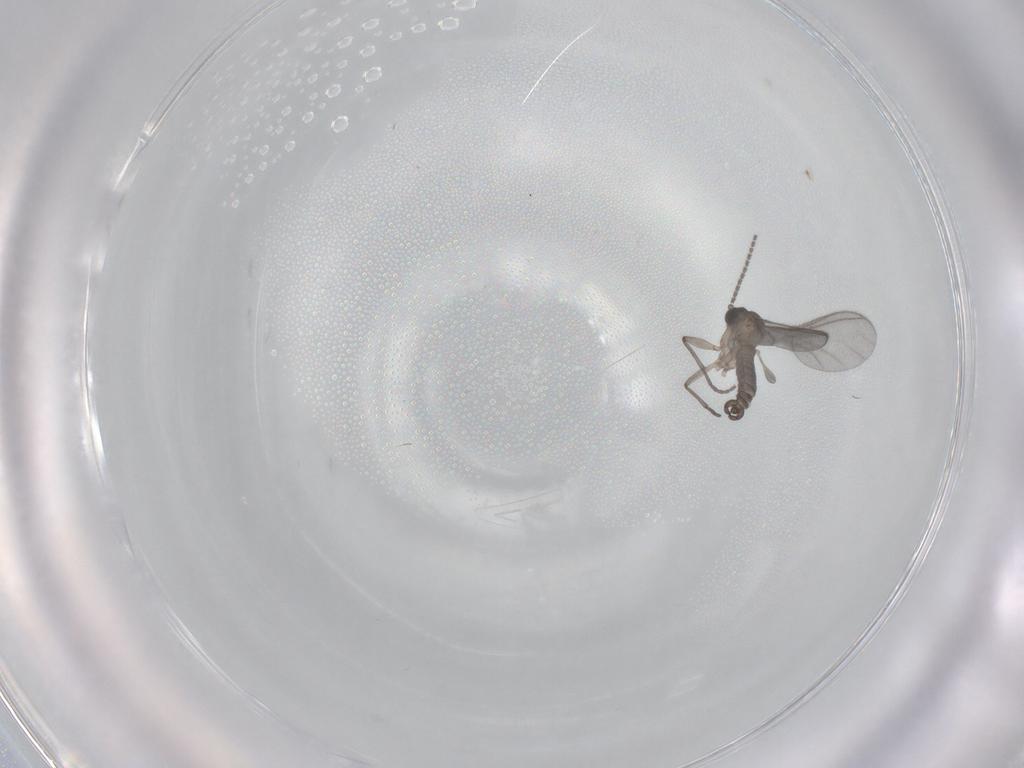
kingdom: Animalia
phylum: Arthropoda
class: Insecta
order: Diptera
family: Sciaridae
